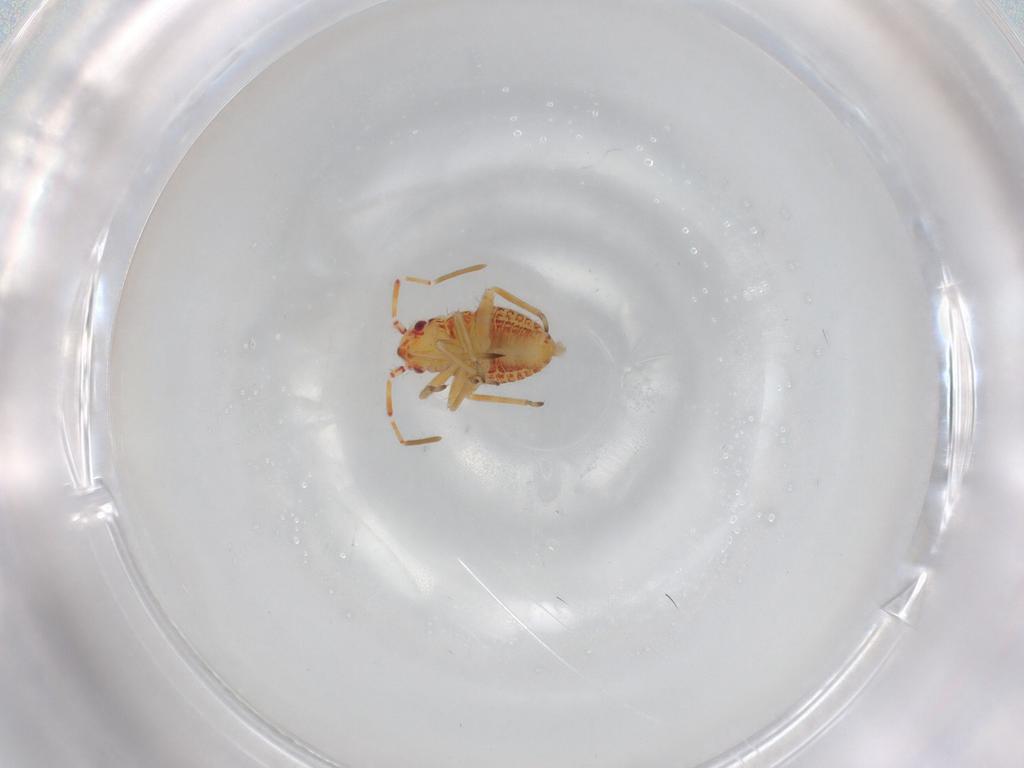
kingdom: Animalia
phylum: Arthropoda
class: Insecta
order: Hemiptera
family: Miridae
